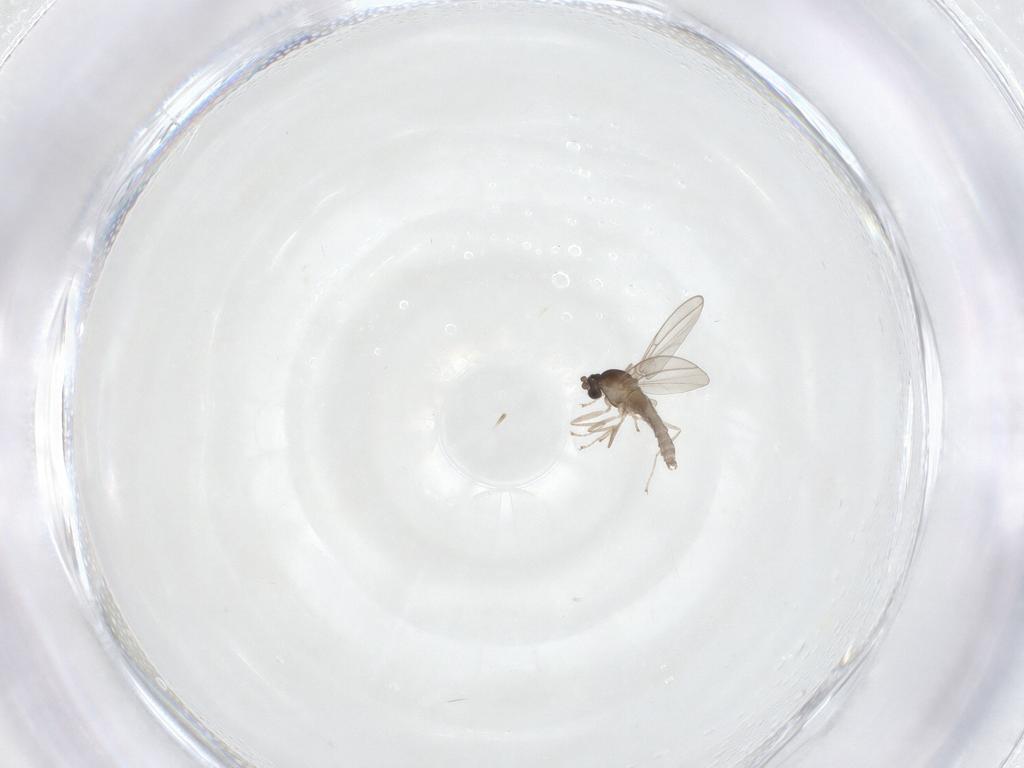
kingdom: Animalia
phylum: Arthropoda
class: Insecta
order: Diptera
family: Cecidomyiidae
